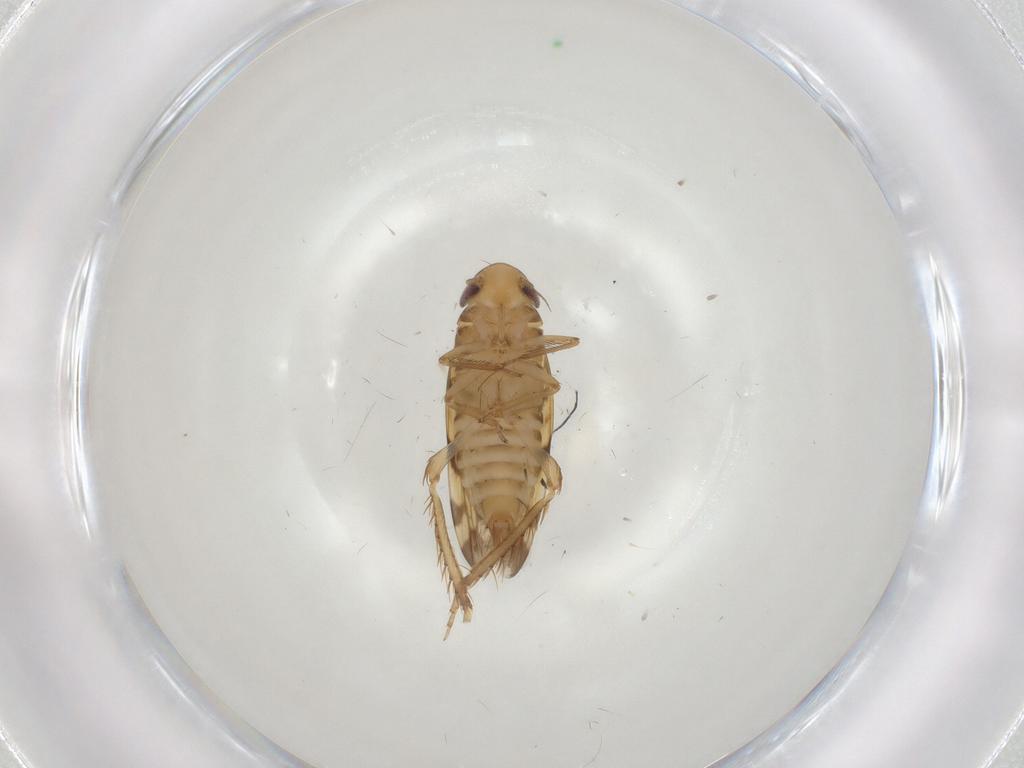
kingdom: Animalia
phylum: Arthropoda
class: Insecta
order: Hemiptera
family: Cicadellidae
